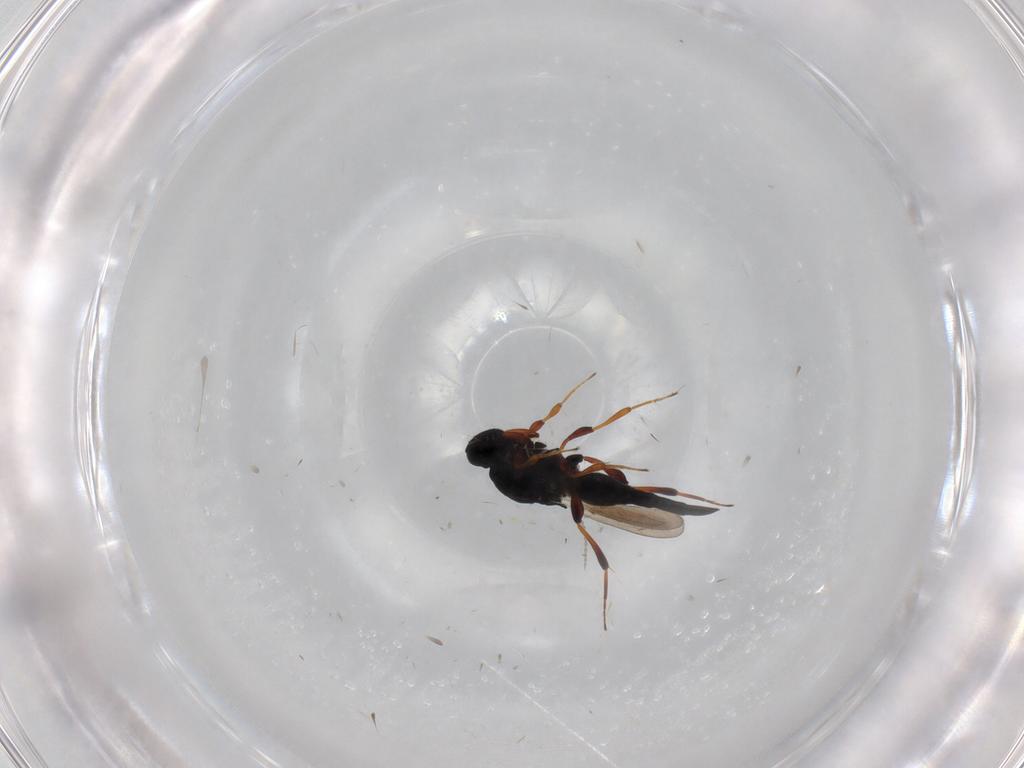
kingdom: Animalia
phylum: Arthropoda
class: Insecta
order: Hymenoptera
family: Platygastridae
